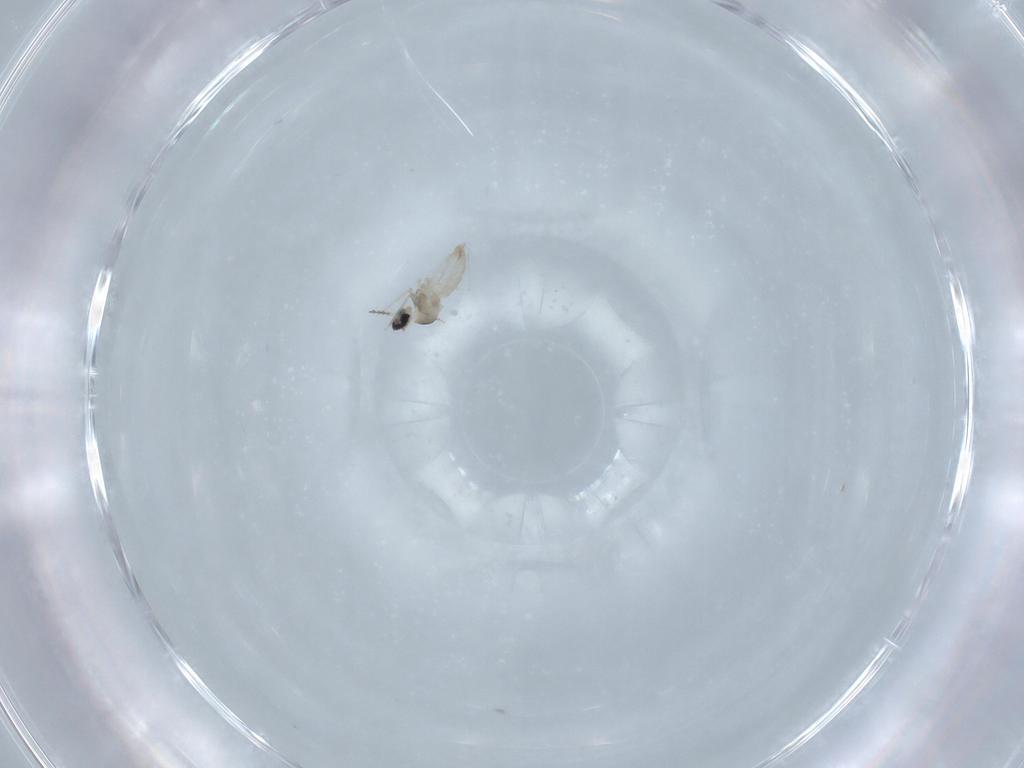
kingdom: Animalia
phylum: Arthropoda
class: Insecta
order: Diptera
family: Cecidomyiidae
